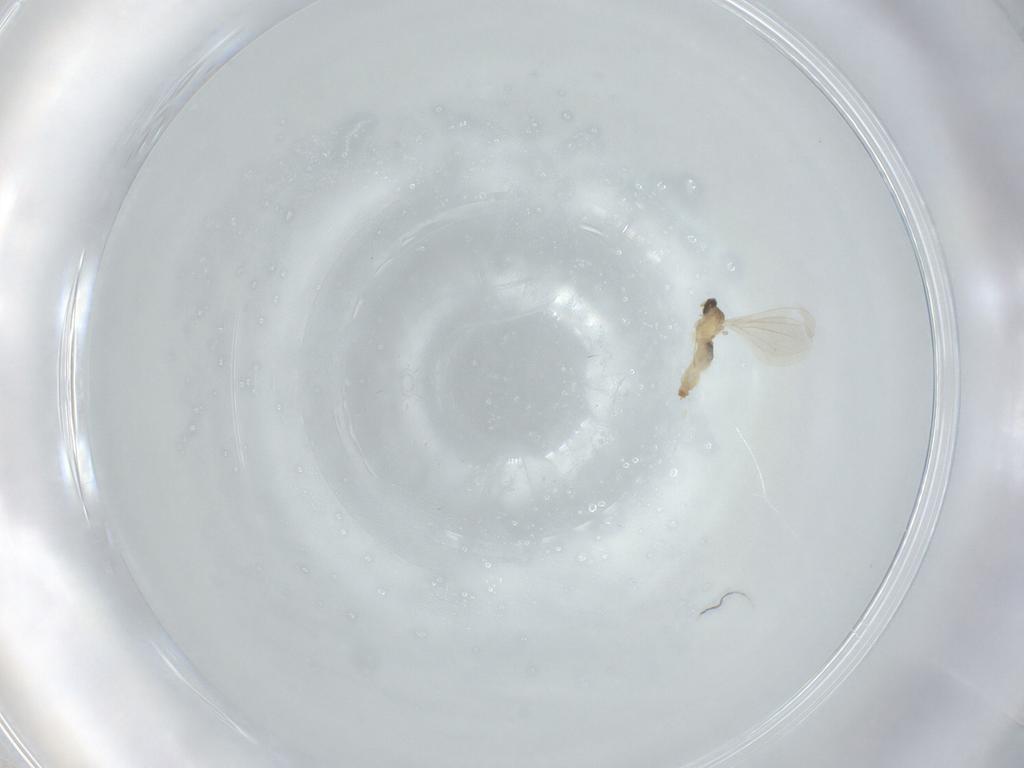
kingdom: Animalia
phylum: Arthropoda
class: Insecta
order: Diptera
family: Cecidomyiidae
